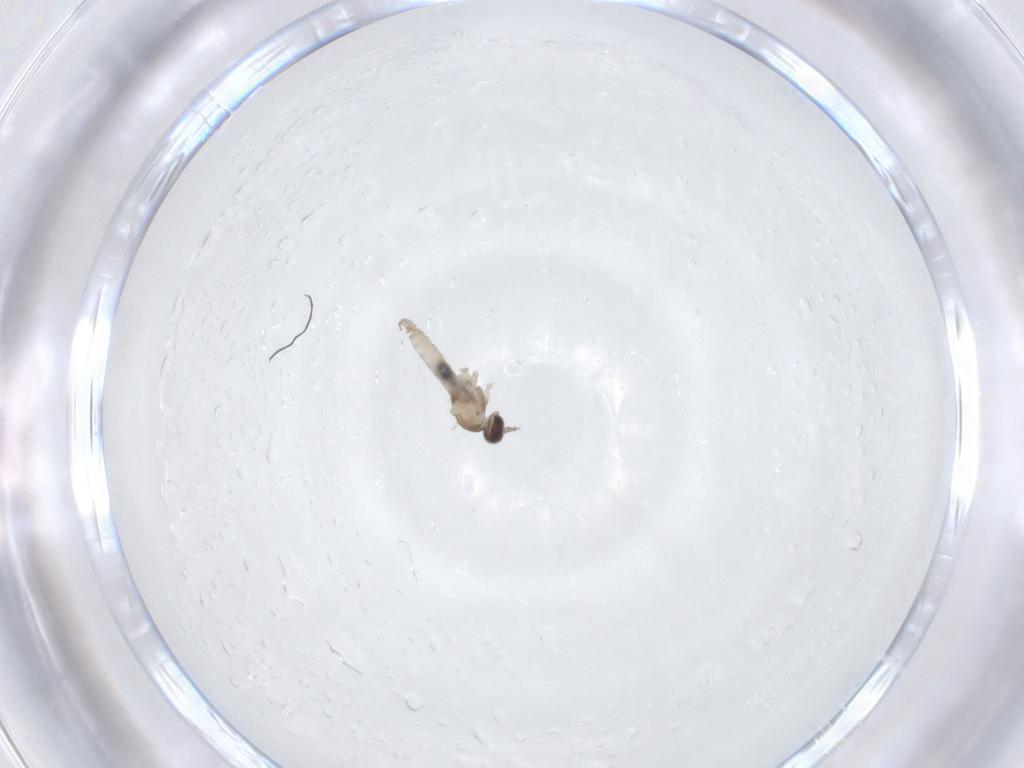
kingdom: Animalia
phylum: Arthropoda
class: Insecta
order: Diptera
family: Cecidomyiidae
